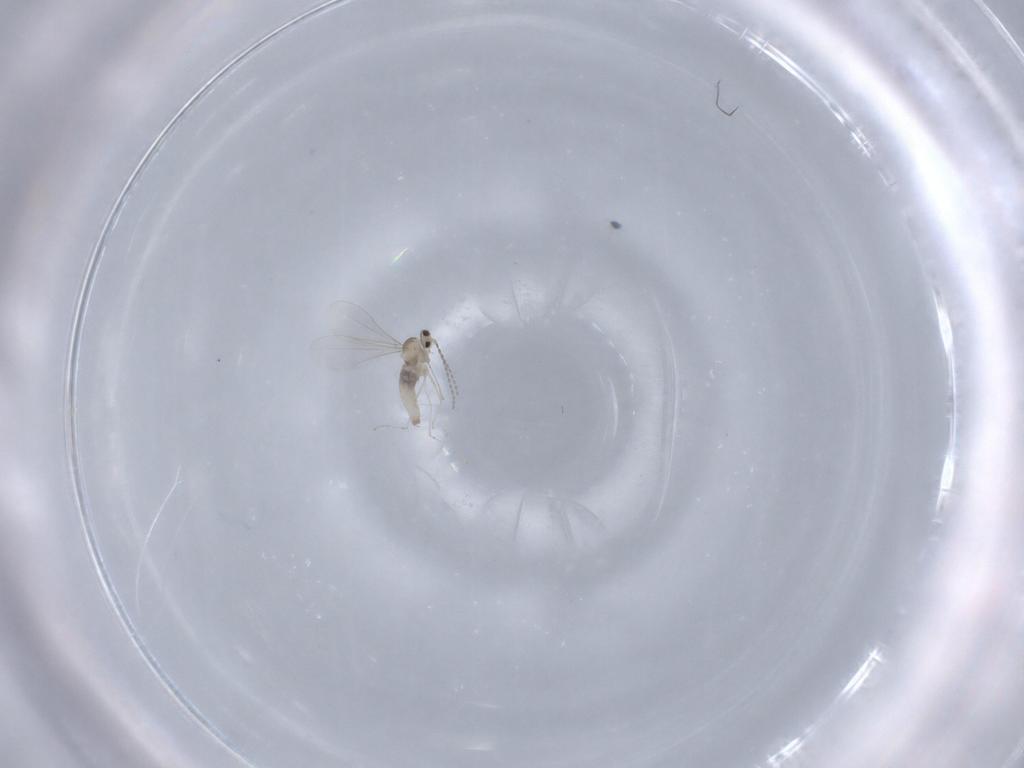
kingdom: Animalia
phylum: Arthropoda
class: Insecta
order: Diptera
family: Cecidomyiidae
